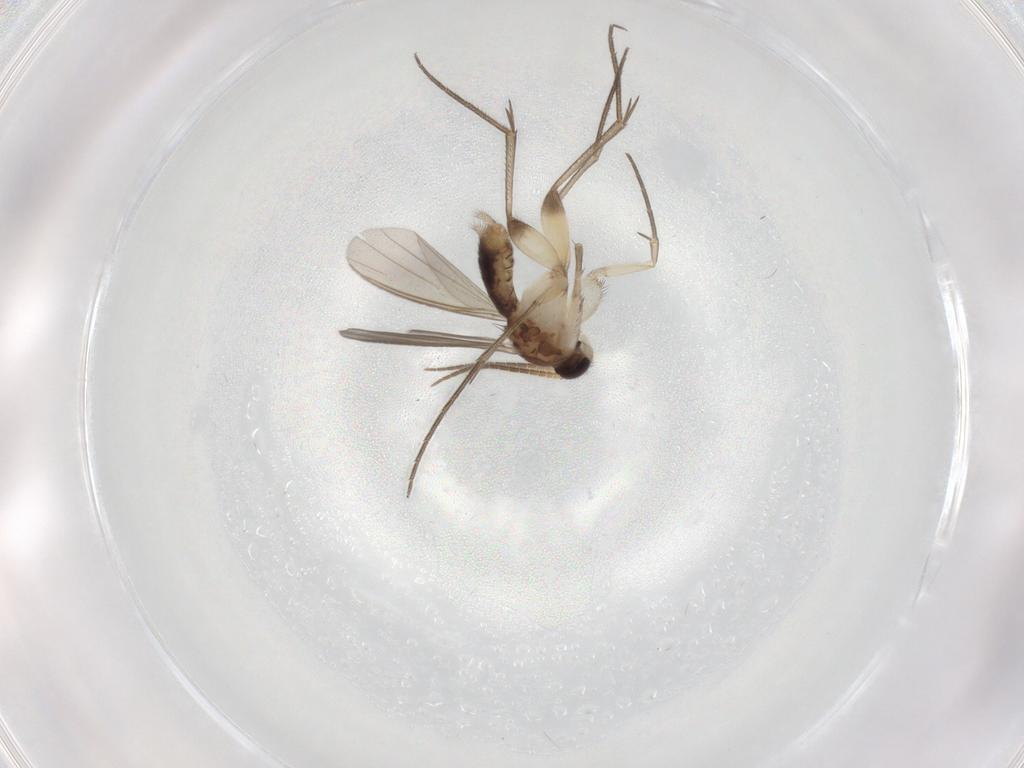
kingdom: Animalia
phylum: Arthropoda
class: Insecta
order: Diptera
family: Mycetophilidae
